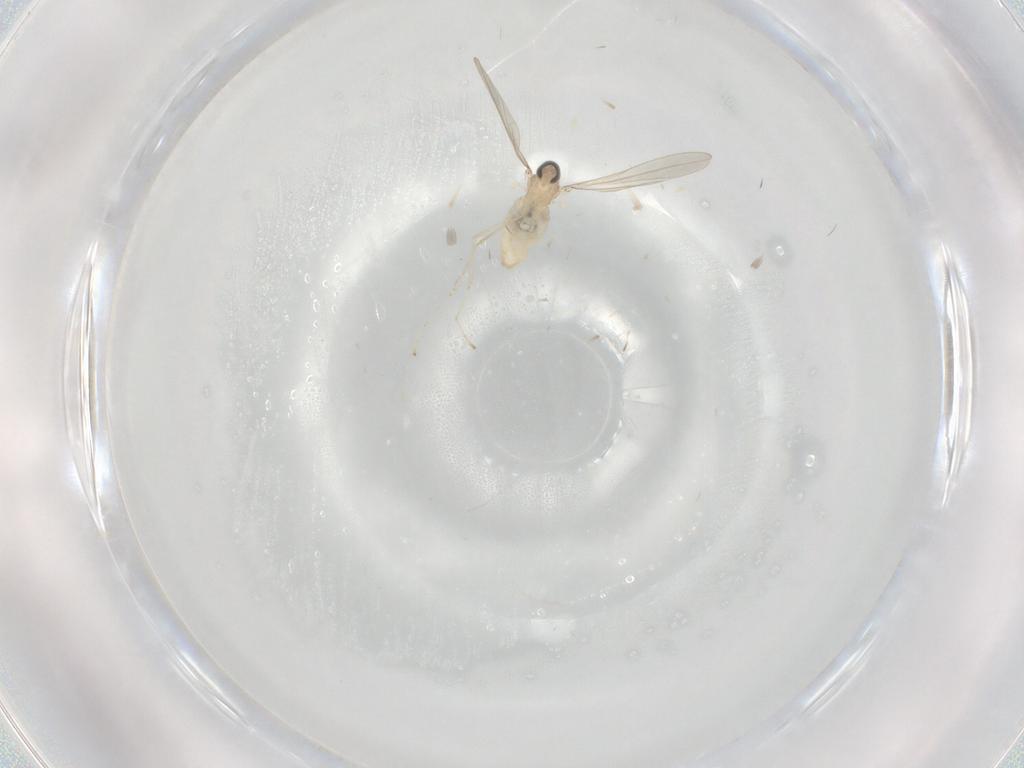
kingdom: Animalia
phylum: Arthropoda
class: Insecta
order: Diptera
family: Cecidomyiidae
